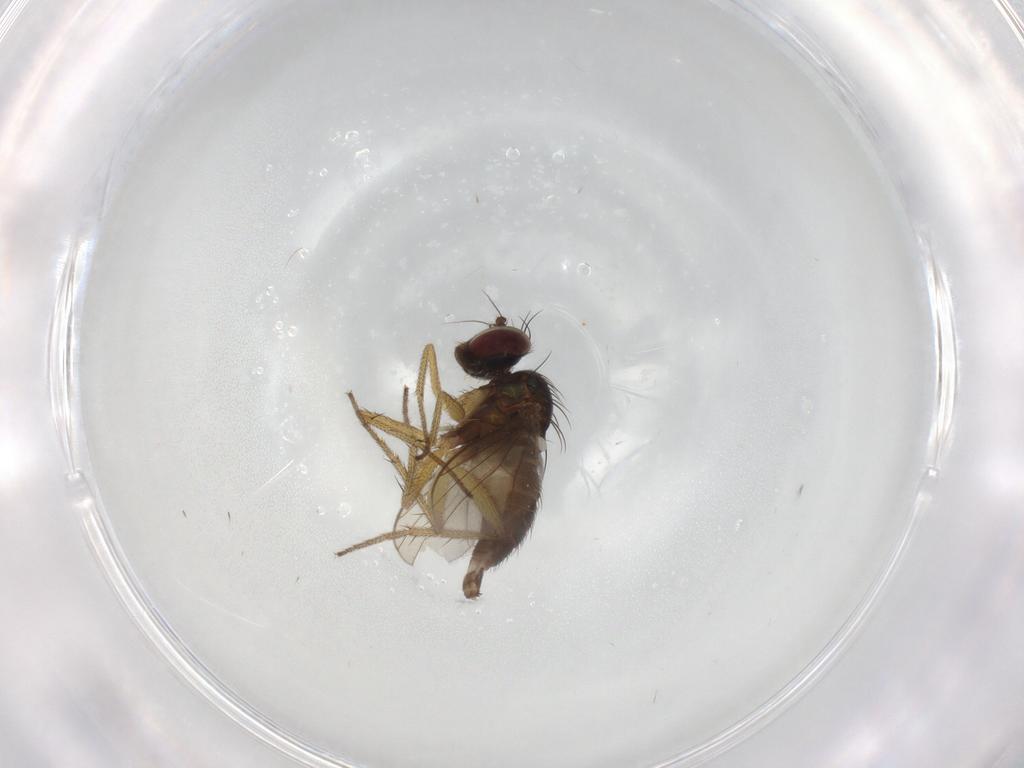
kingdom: Animalia
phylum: Arthropoda
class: Insecta
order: Diptera
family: Dolichopodidae
